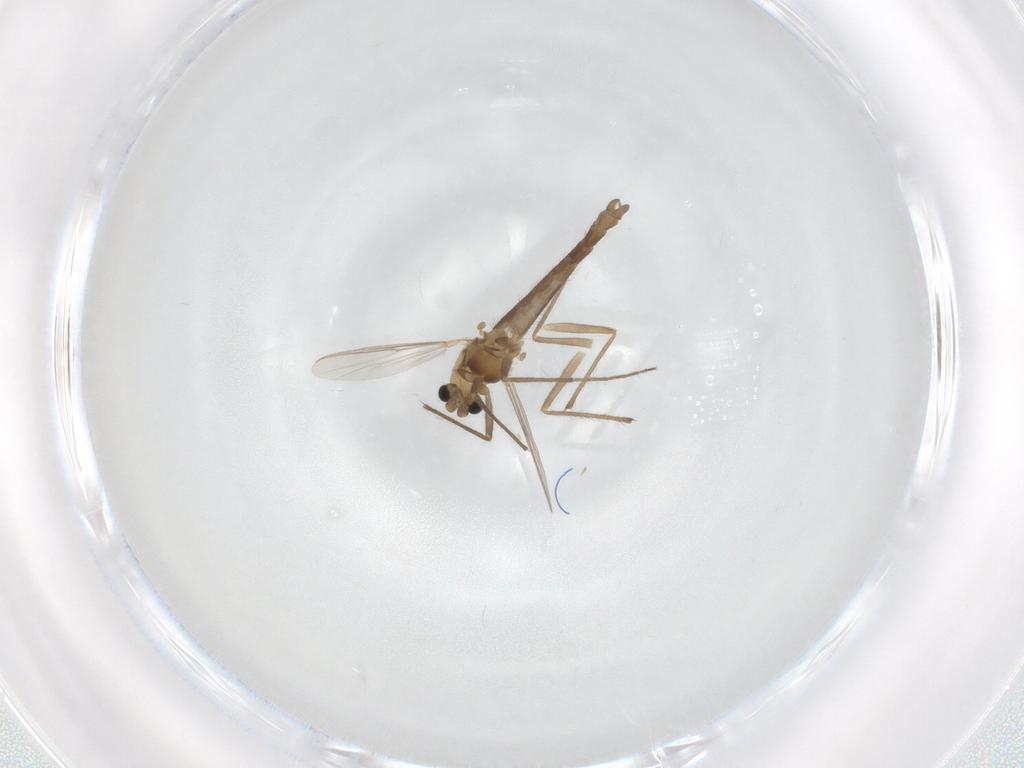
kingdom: Animalia
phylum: Arthropoda
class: Insecta
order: Diptera
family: Chironomidae
